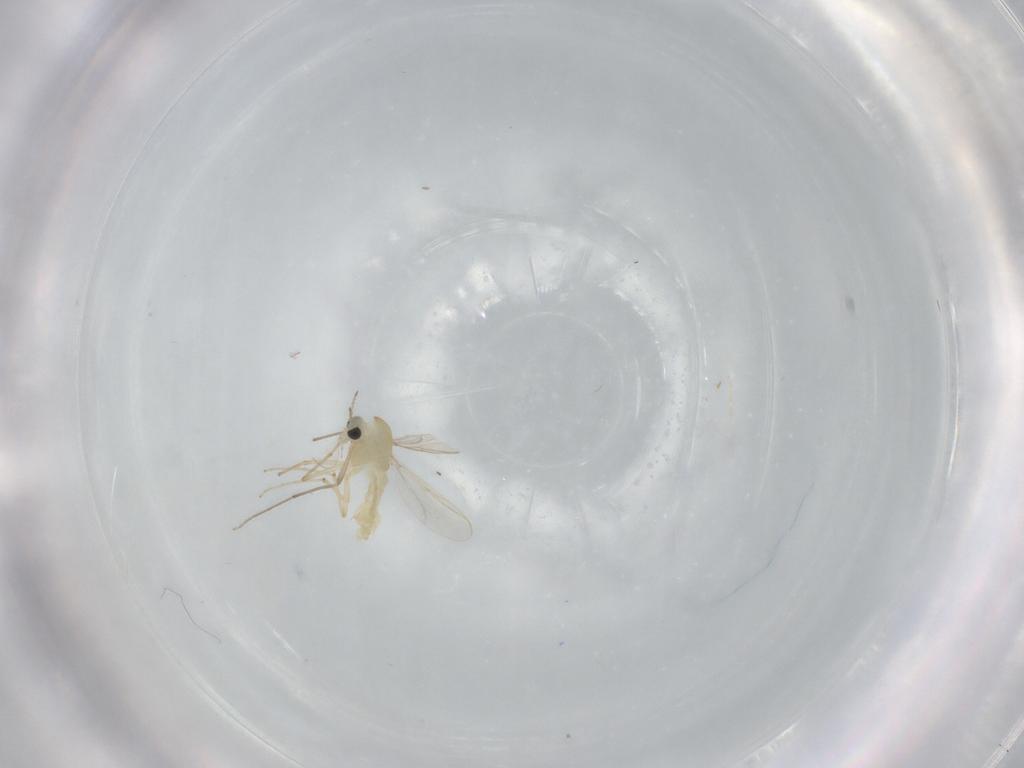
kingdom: Animalia
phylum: Arthropoda
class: Insecta
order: Diptera
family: Chironomidae
